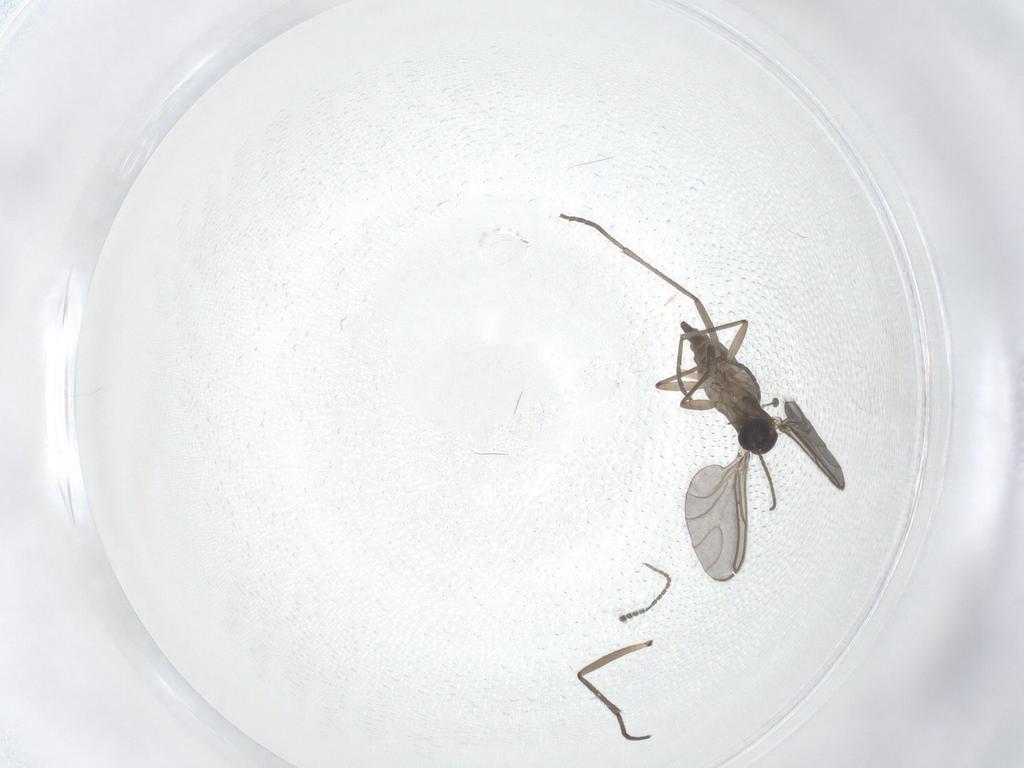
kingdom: Animalia
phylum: Arthropoda
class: Insecta
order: Diptera
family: Sciaridae
